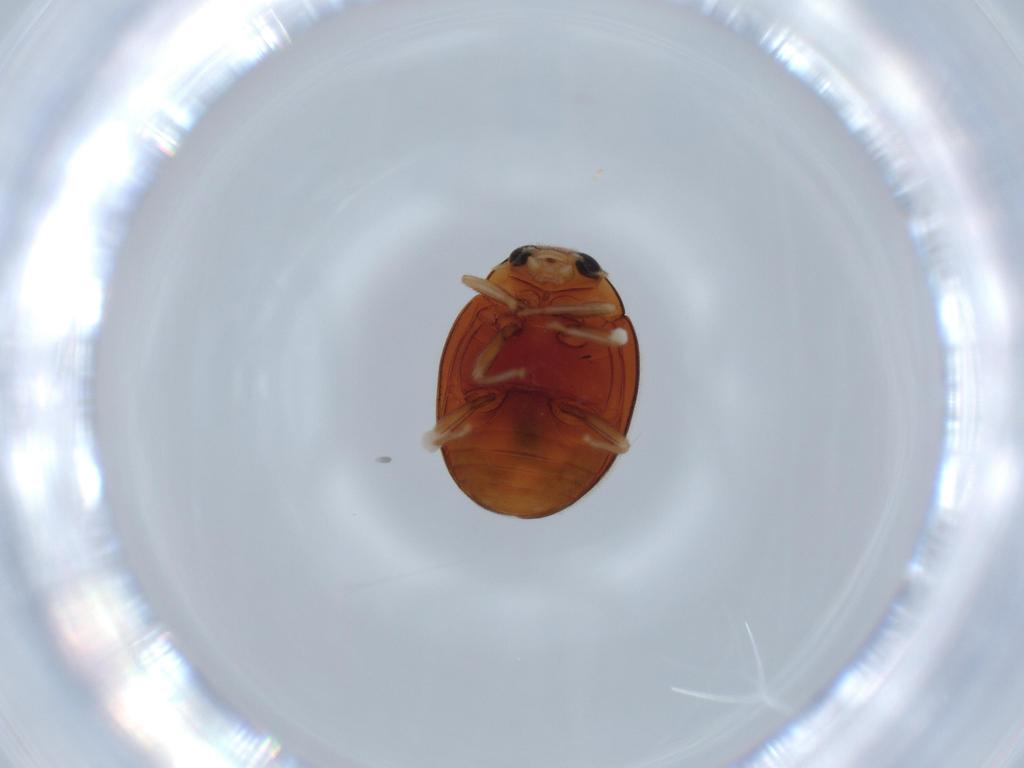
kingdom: Animalia
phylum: Arthropoda
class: Insecta
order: Coleoptera
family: Coccinellidae
